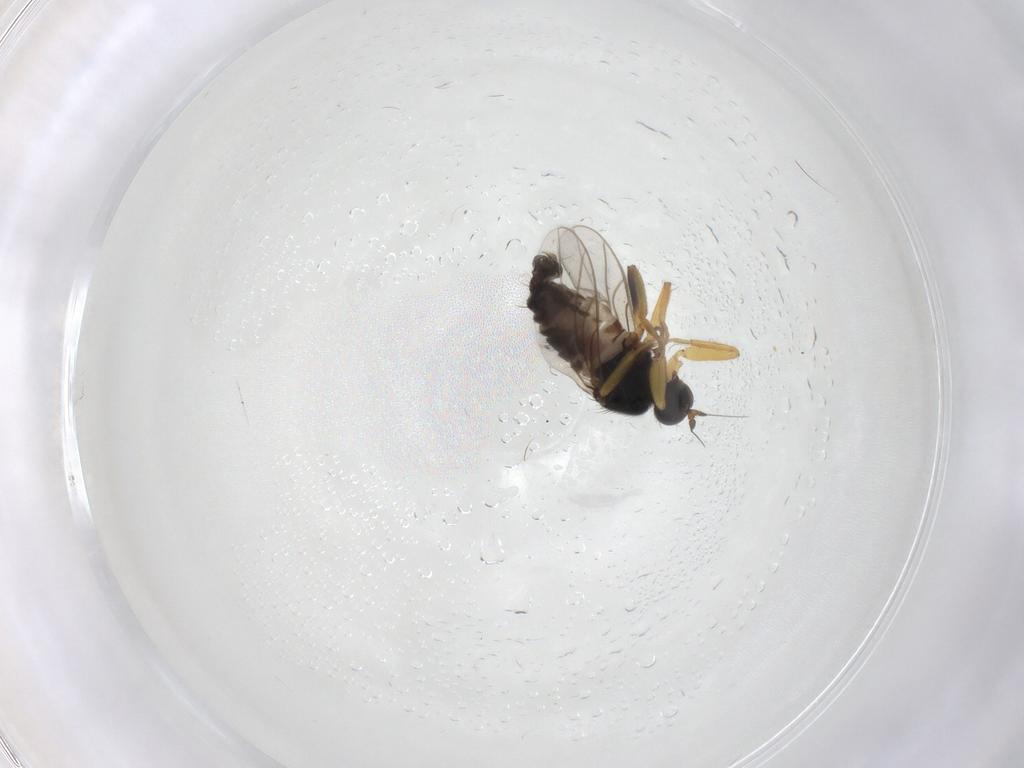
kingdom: Animalia
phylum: Arthropoda
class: Insecta
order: Diptera
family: Hybotidae
